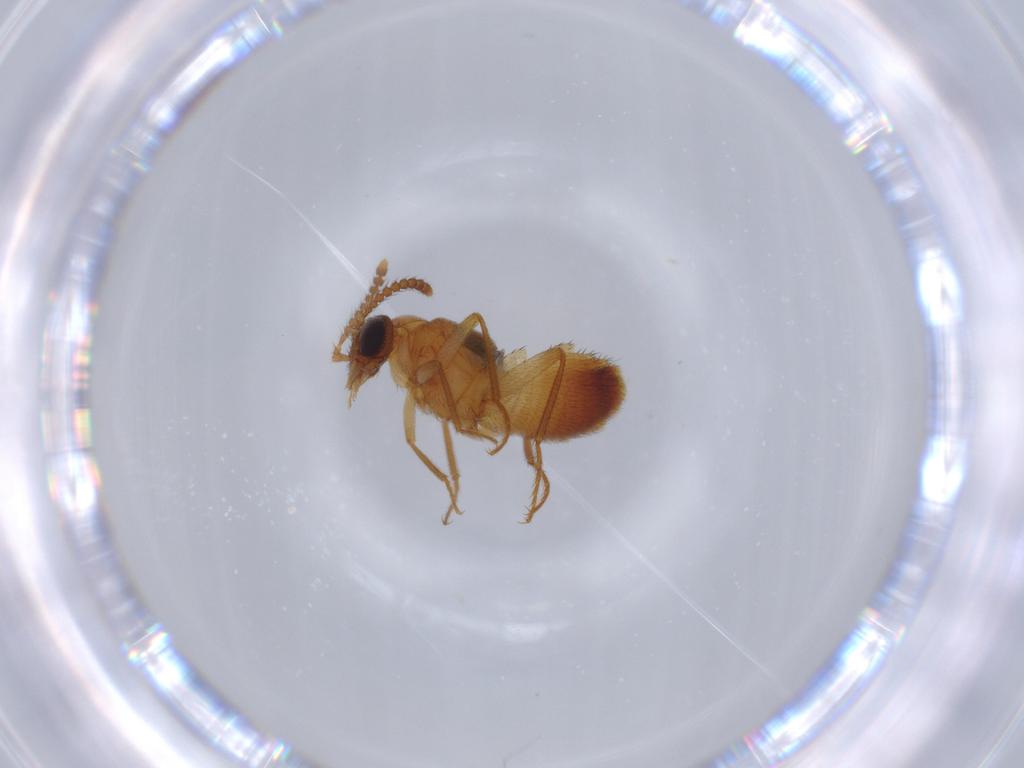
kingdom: Animalia
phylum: Arthropoda
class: Insecta
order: Coleoptera
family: Staphylinidae
